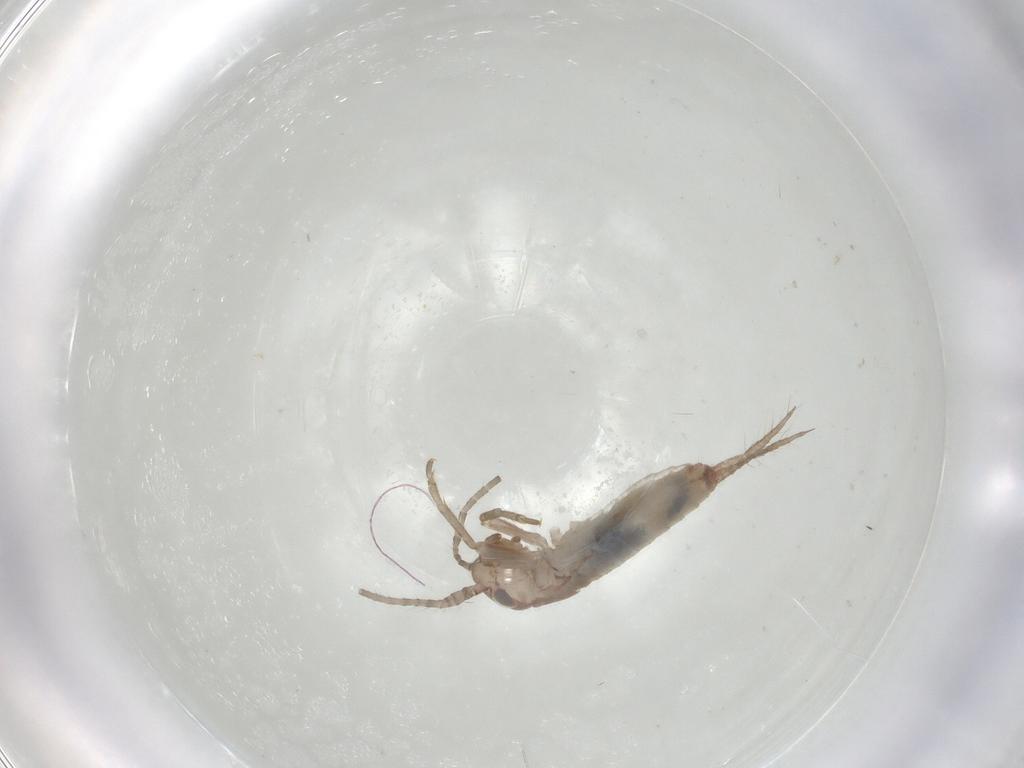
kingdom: Animalia
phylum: Arthropoda
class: Insecta
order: Orthoptera
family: Mogoplistidae
